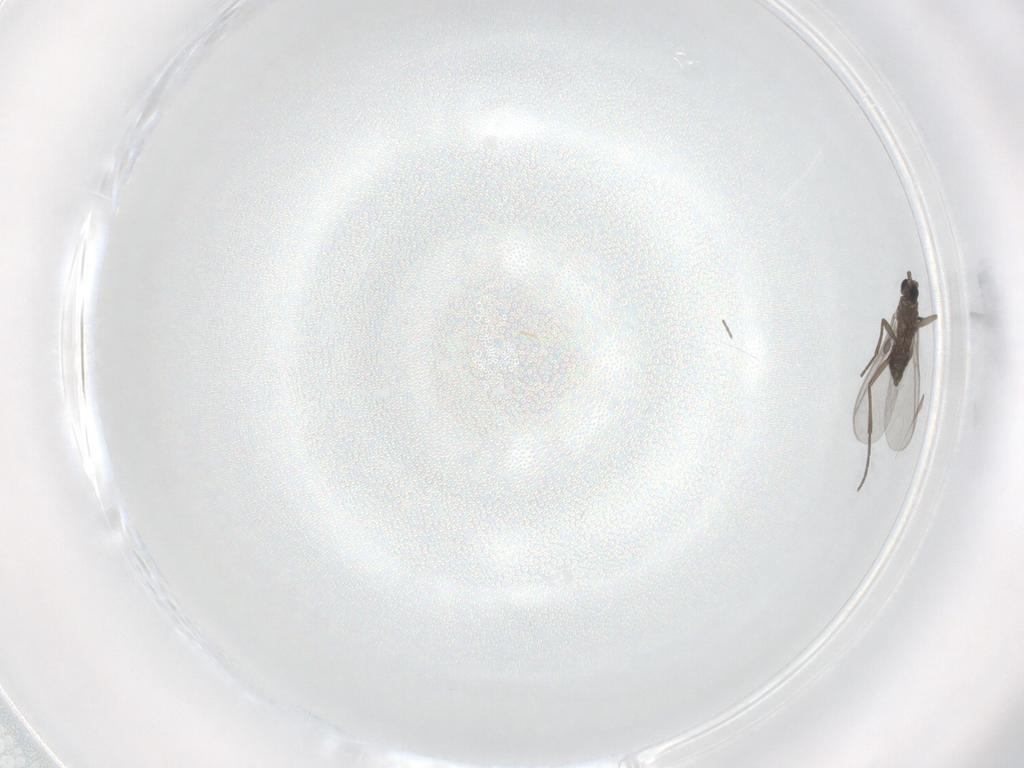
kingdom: Animalia
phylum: Arthropoda
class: Insecta
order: Diptera
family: Sciaridae
